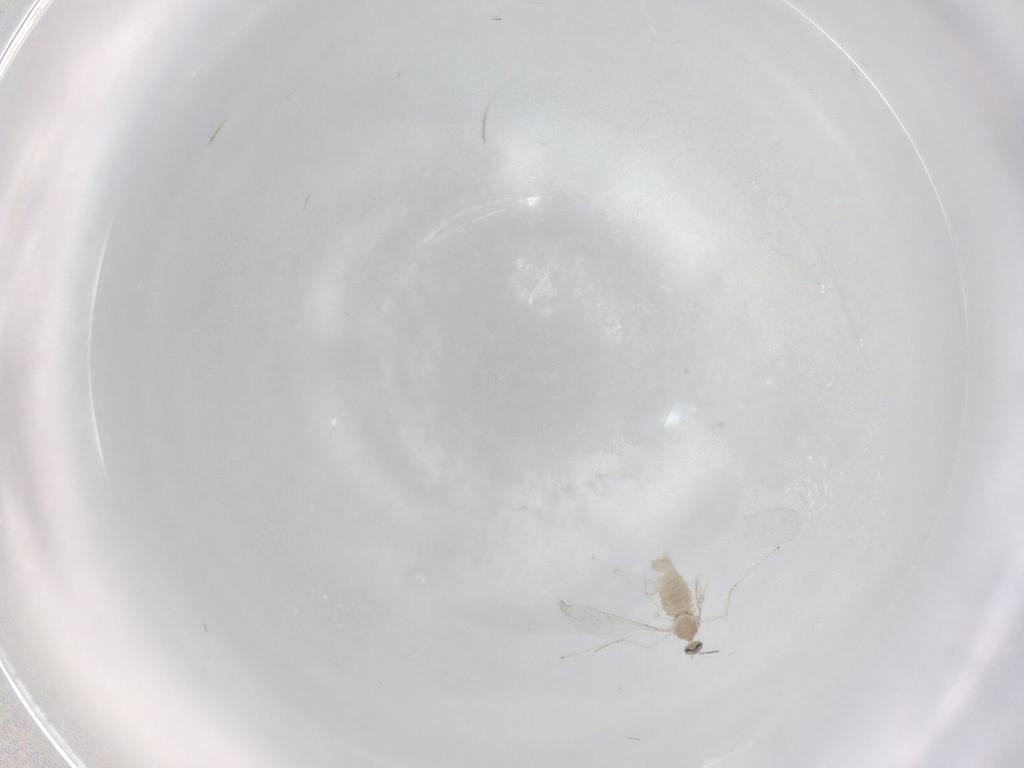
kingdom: Animalia
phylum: Arthropoda
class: Insecta
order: Diptera
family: Cecidomyiidae
